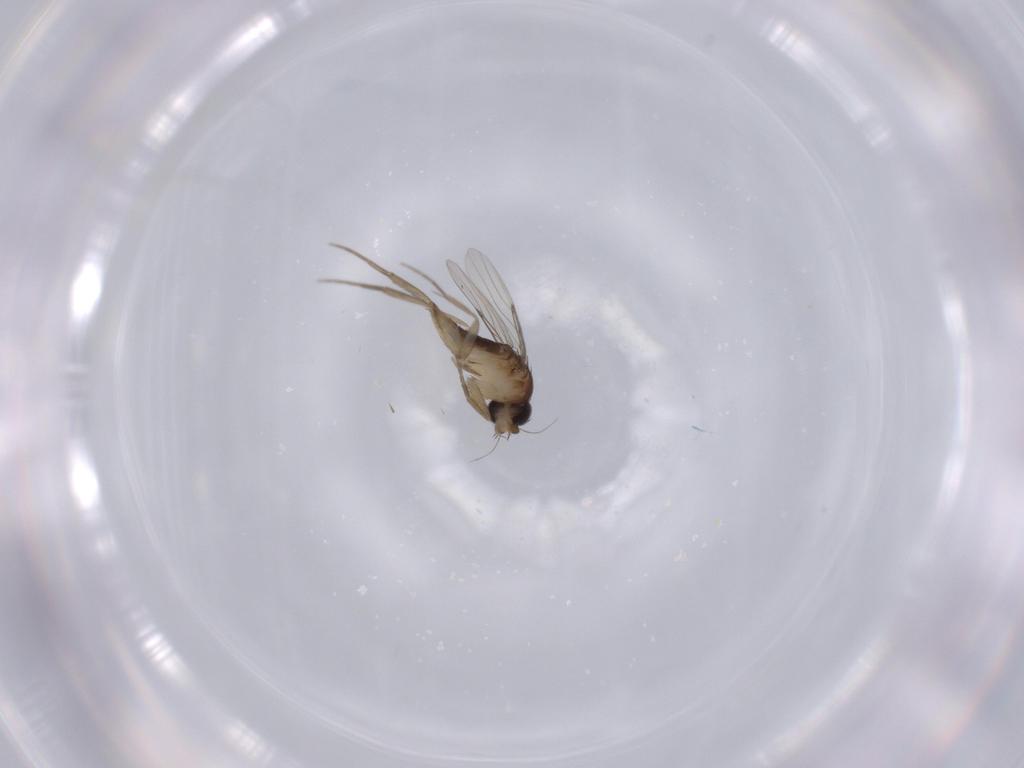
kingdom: Animalia
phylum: Arthropoda
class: Insecta
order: Diptera
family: Phoridae
